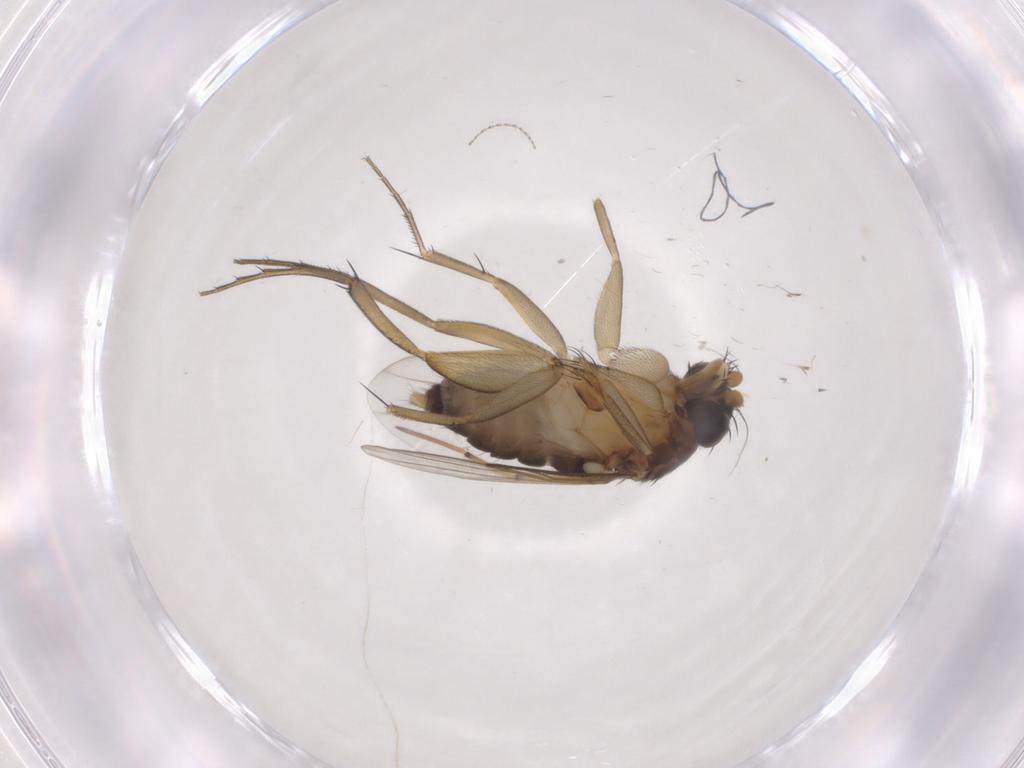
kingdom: Animalia
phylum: Arthropoda
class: Insecta
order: Diptera
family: Phoridae
